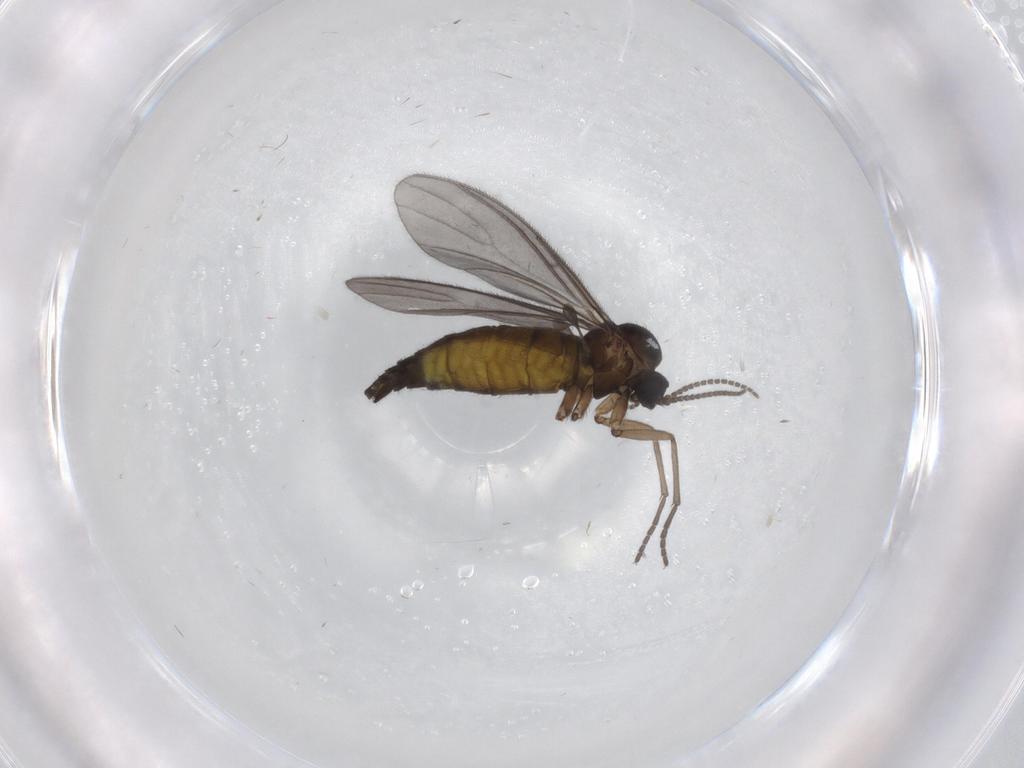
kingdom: Animalia
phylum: Arthropoda
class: Insecta
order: Diptera
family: Sciaridae
